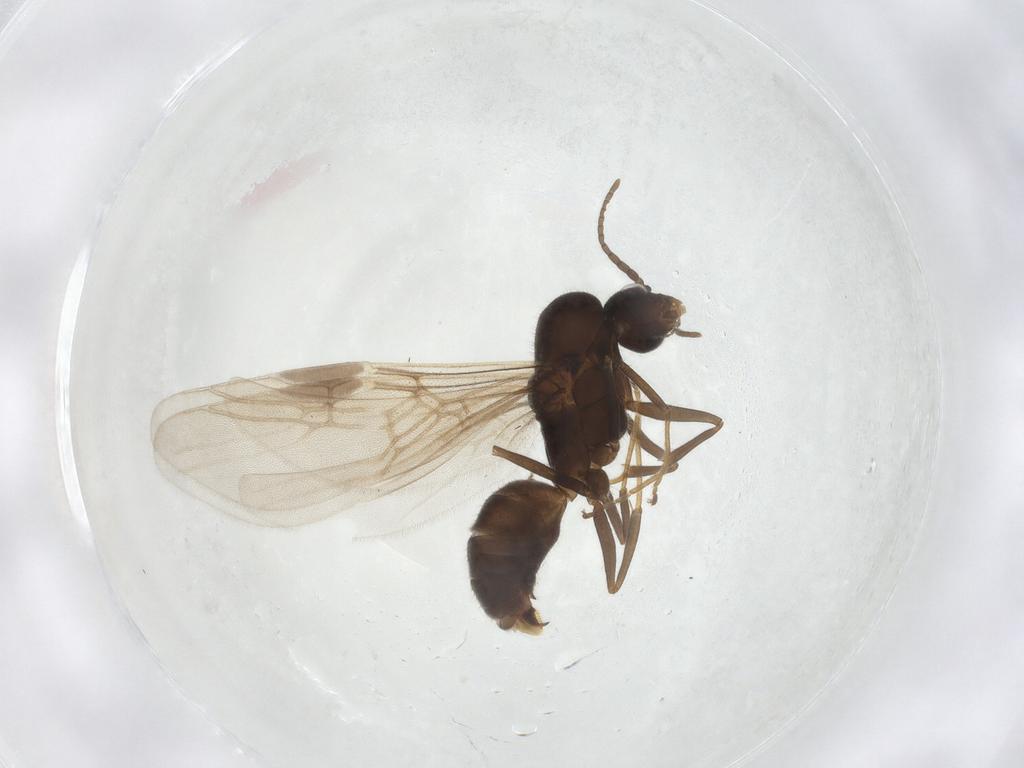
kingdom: Animalia
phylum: Arthropoda
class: Insecta
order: Hymenoptera
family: Formicidae
